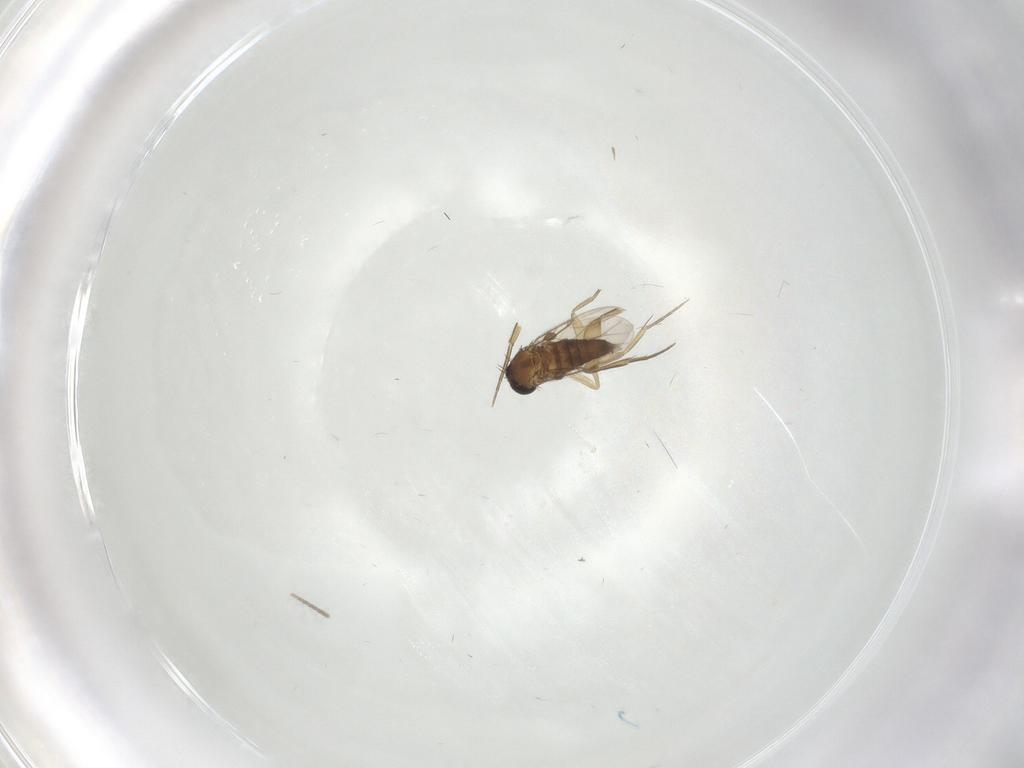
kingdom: Animalia
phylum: Arthropoda
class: Insecta
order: Diptera
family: Phoridae
